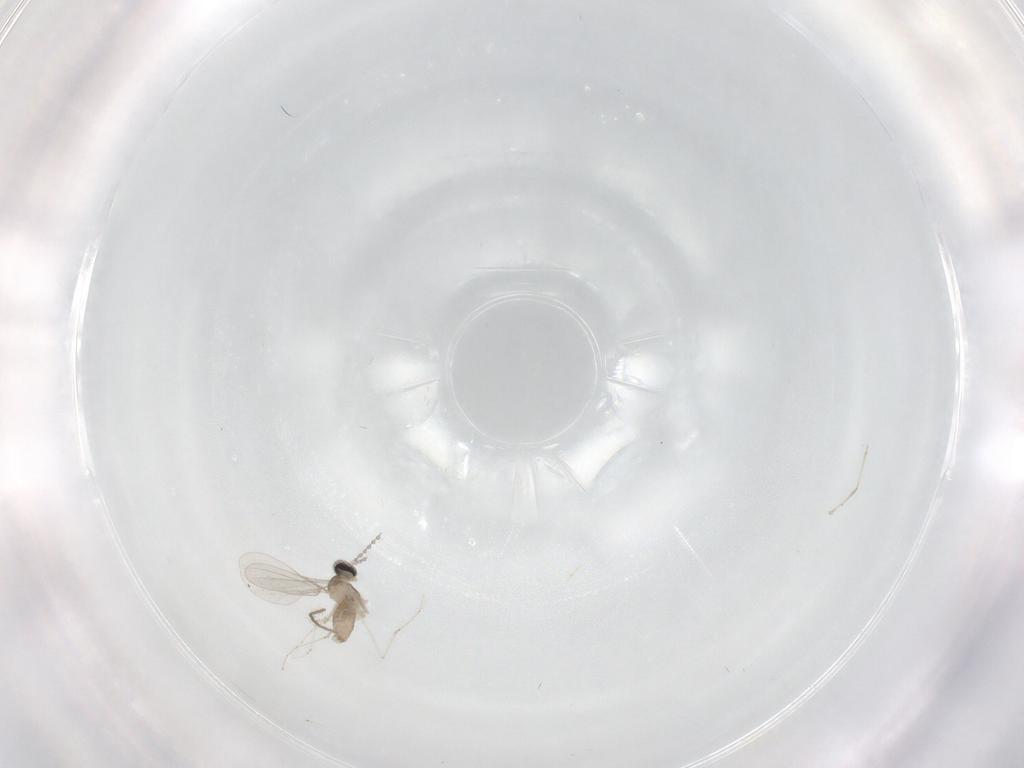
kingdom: Animalia
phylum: Arthropoda
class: Insecta
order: Diptera
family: Cecidomyiidae
